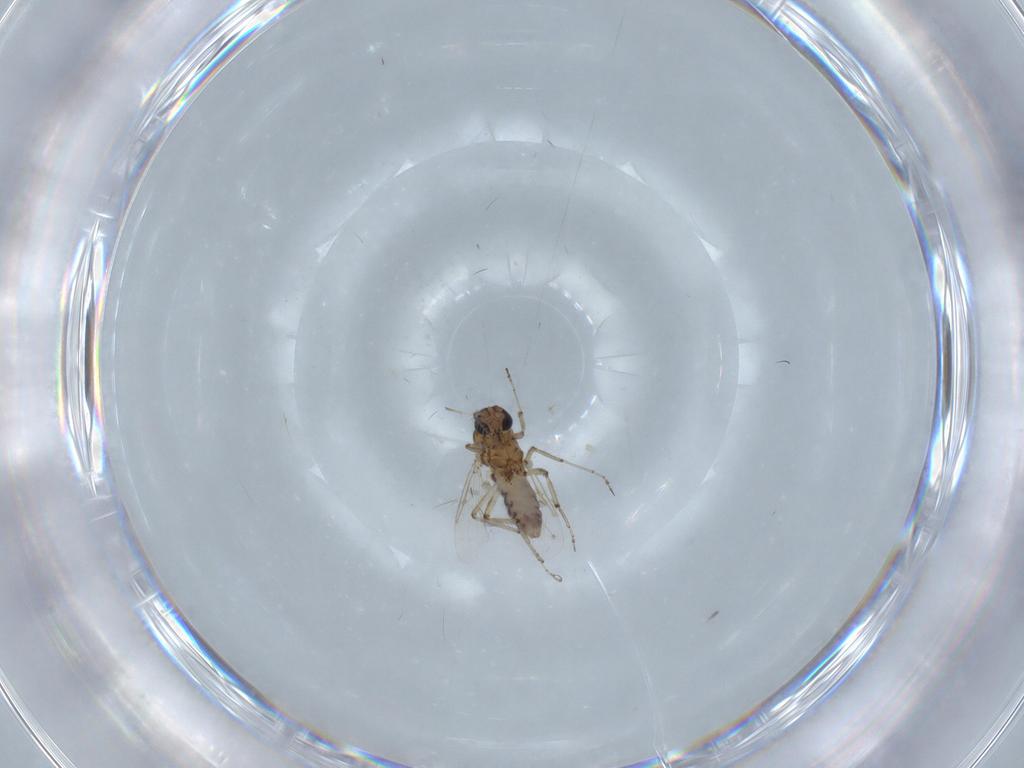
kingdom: Animalia
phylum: Arthropoda
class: Insecta
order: Diptera
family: Ceratopogonidae
